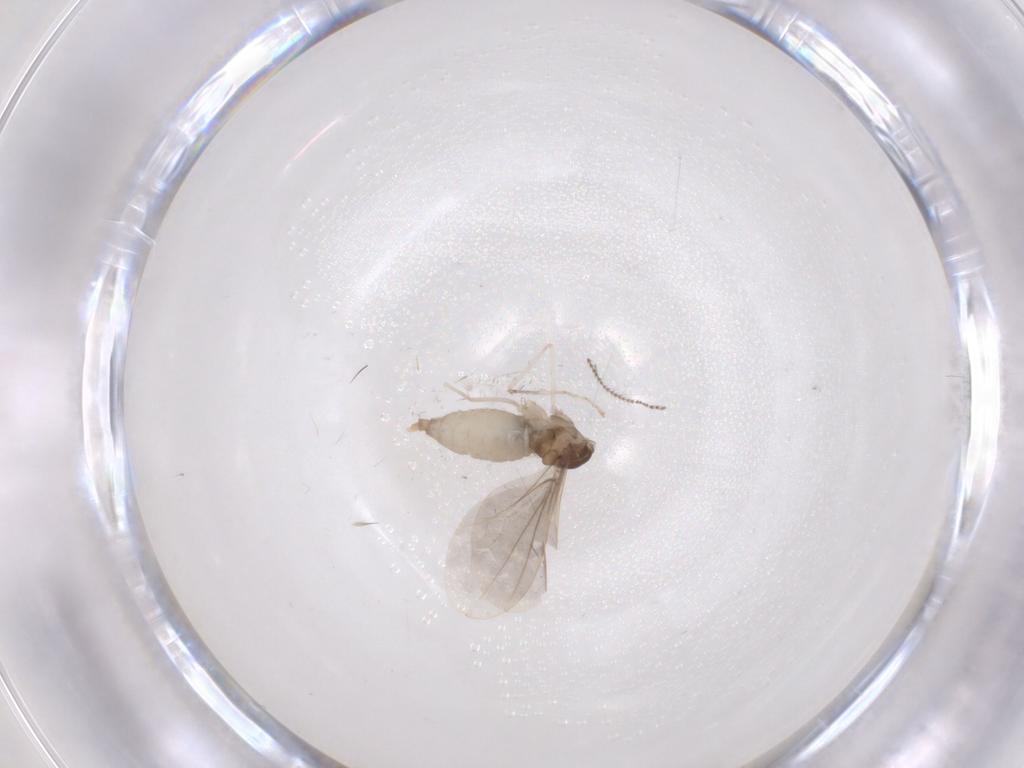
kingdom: Animalia
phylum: Arthropoda
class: Insecta
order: Diptera
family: Cecidomyiidae
